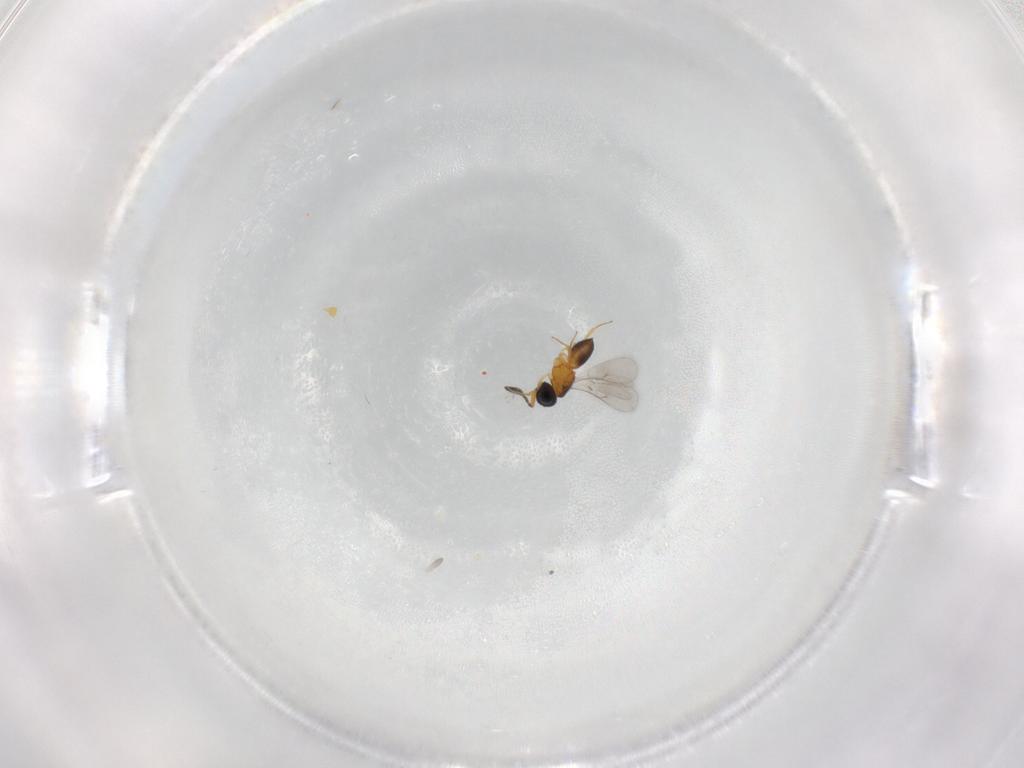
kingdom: Animalia
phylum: Arthropoda
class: Insecta
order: Hymenoptera
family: Scelionidae
